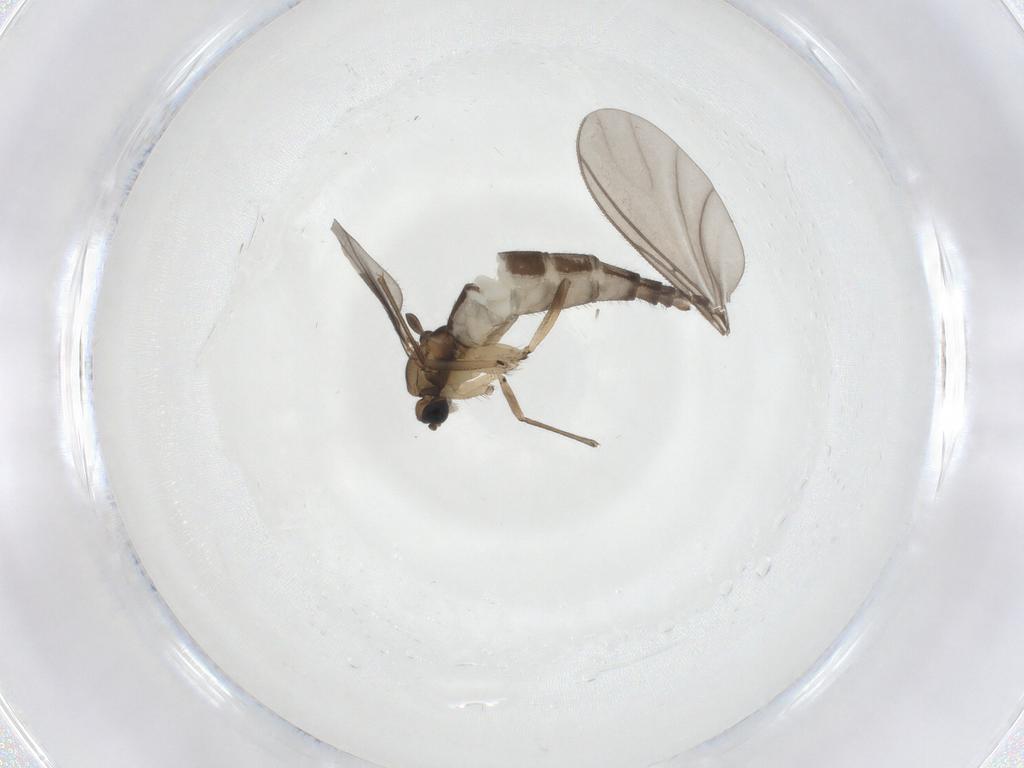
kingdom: Animalia
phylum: Arthropoda
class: Insecta
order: Diptera
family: Sciaridae
